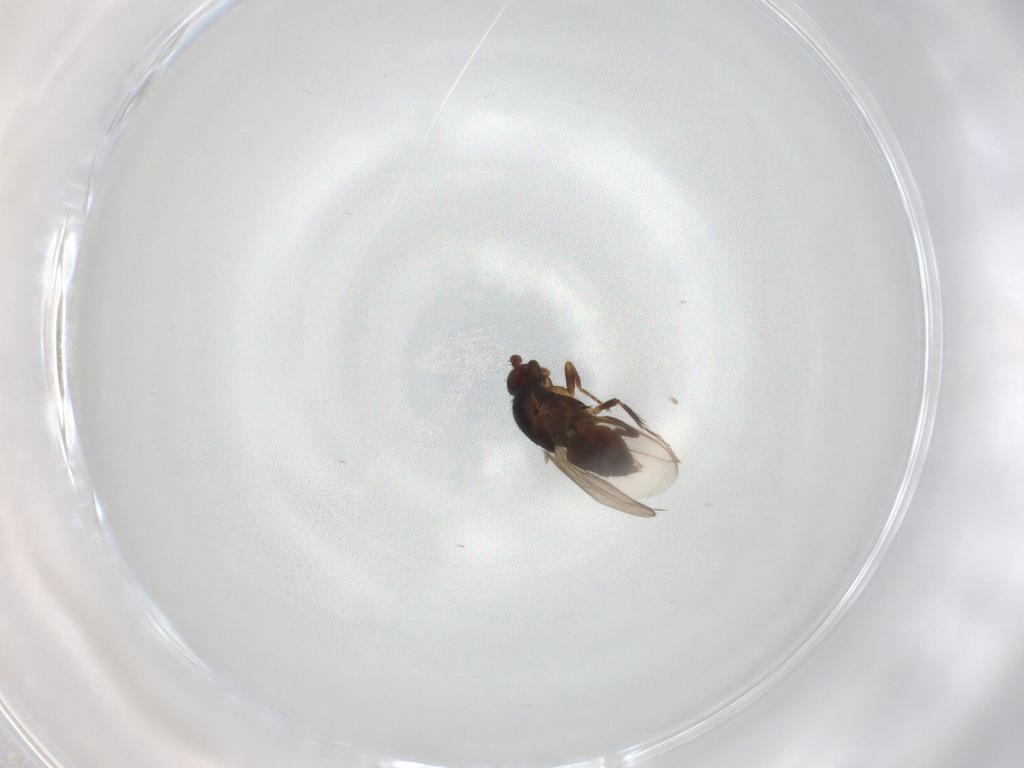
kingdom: Animalia
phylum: Arthropoda
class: Insecta
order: Diptera
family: Sphaeroceridae
